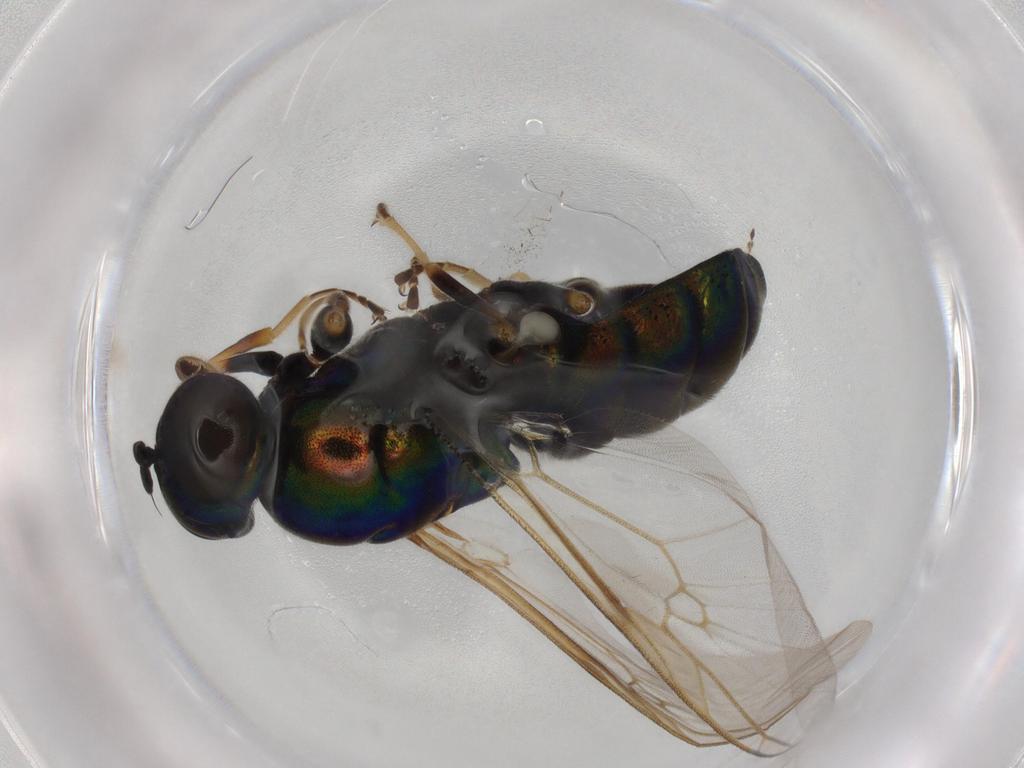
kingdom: Animalia
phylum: Arthropoda
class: Insecta
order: Diptera
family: Drosophilidae
